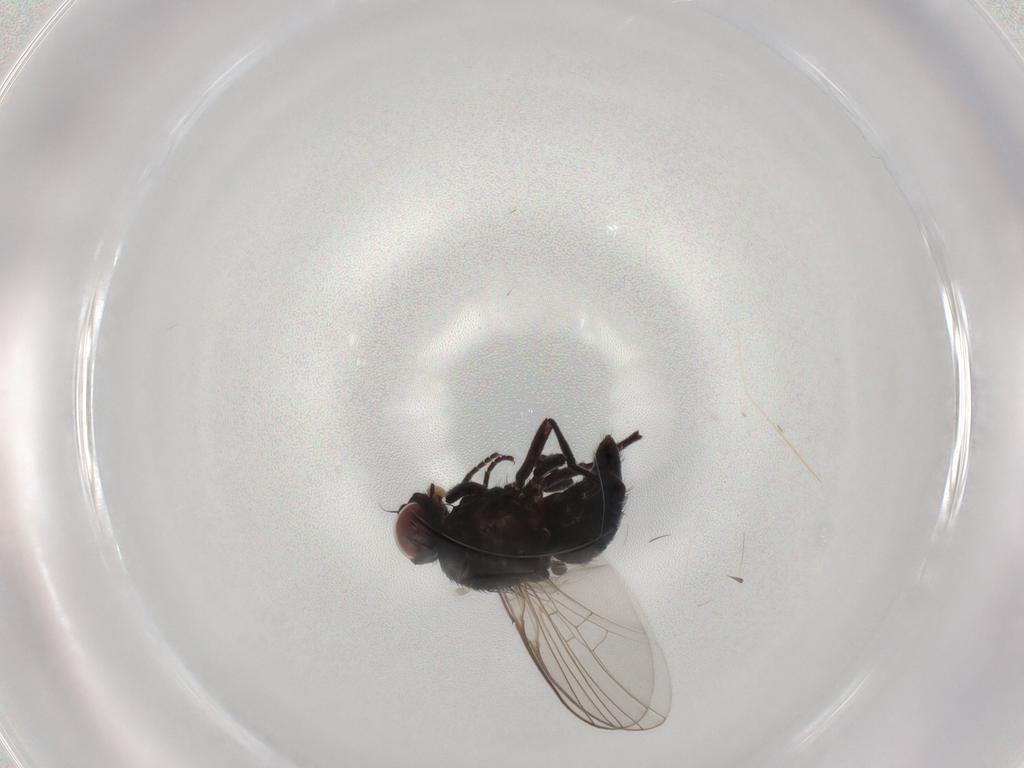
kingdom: Animalia
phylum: Arthropoda
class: Insecta
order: Diptera
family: Agromyzidae
